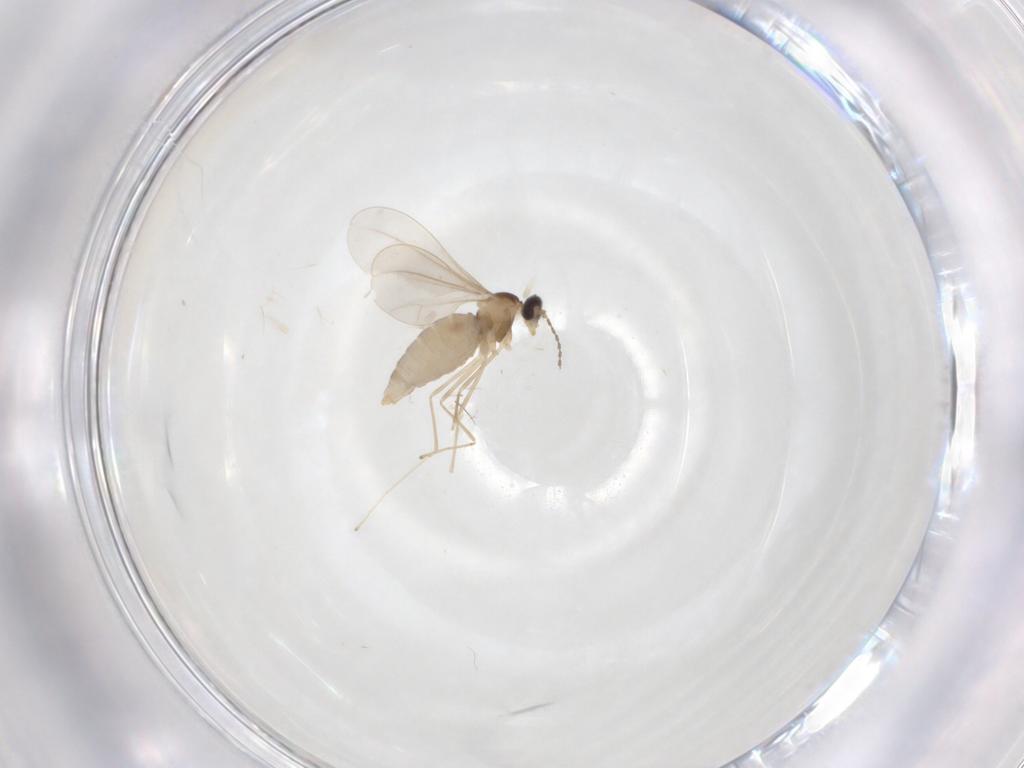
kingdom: Animalia
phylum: Arthropoda
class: Insecta
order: Diptera
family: Cecidomyiidae
